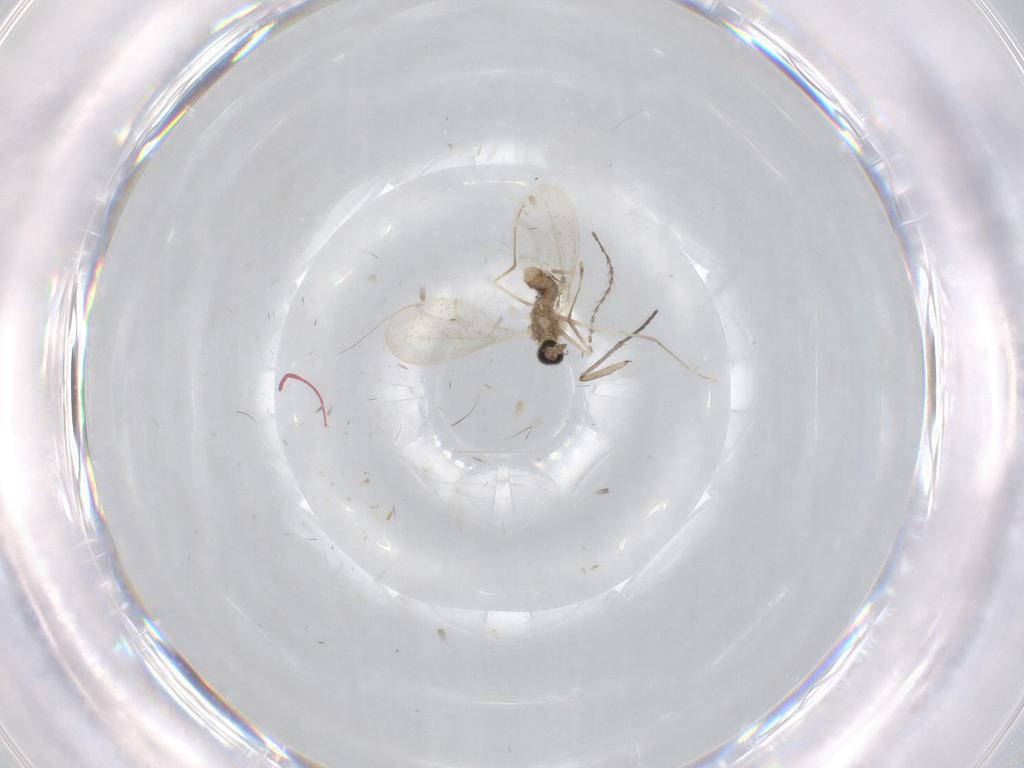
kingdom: Animalia
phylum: Arthropoda
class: Insecta
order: Diptera
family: Sciaridae
